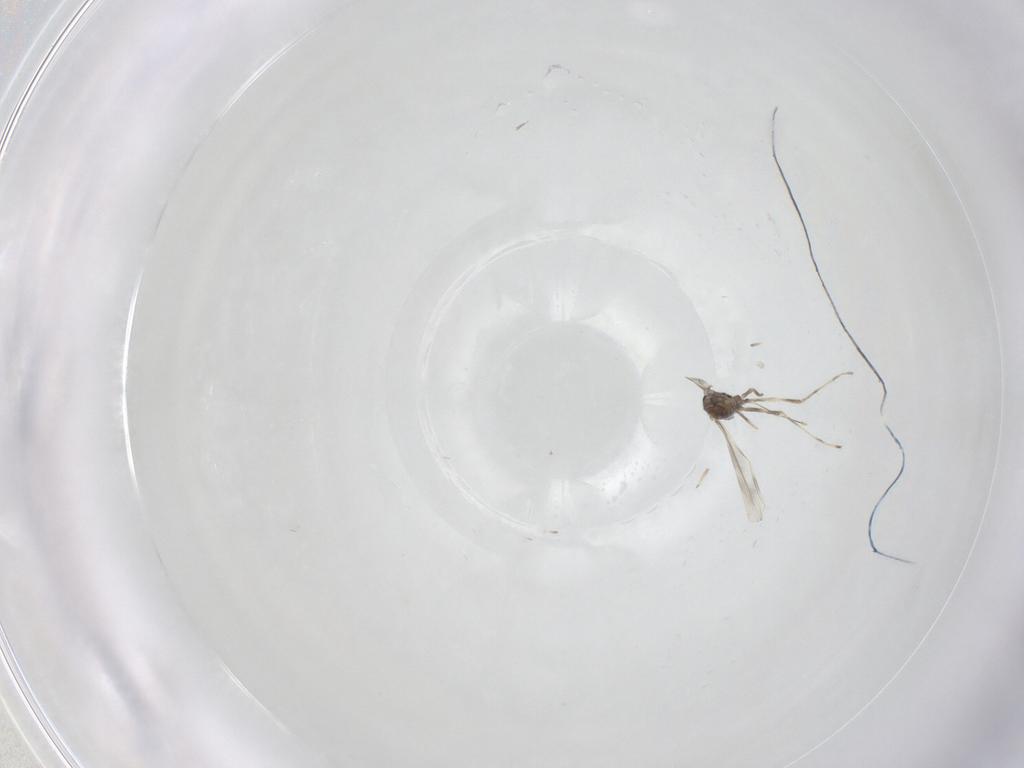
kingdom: Animalia
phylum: Arthropoda
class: Insecta
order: Diptera
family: Cecidomyiidae
